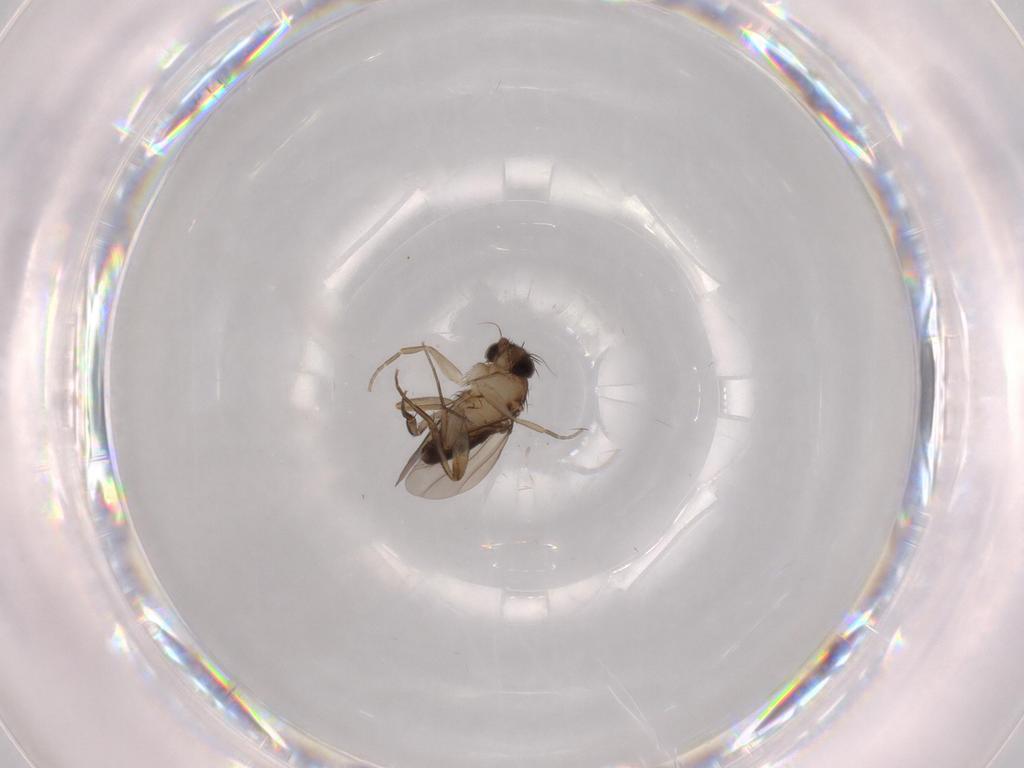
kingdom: Animalia
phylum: Arthropoda
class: Insecta
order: Diptera
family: Phoridae
